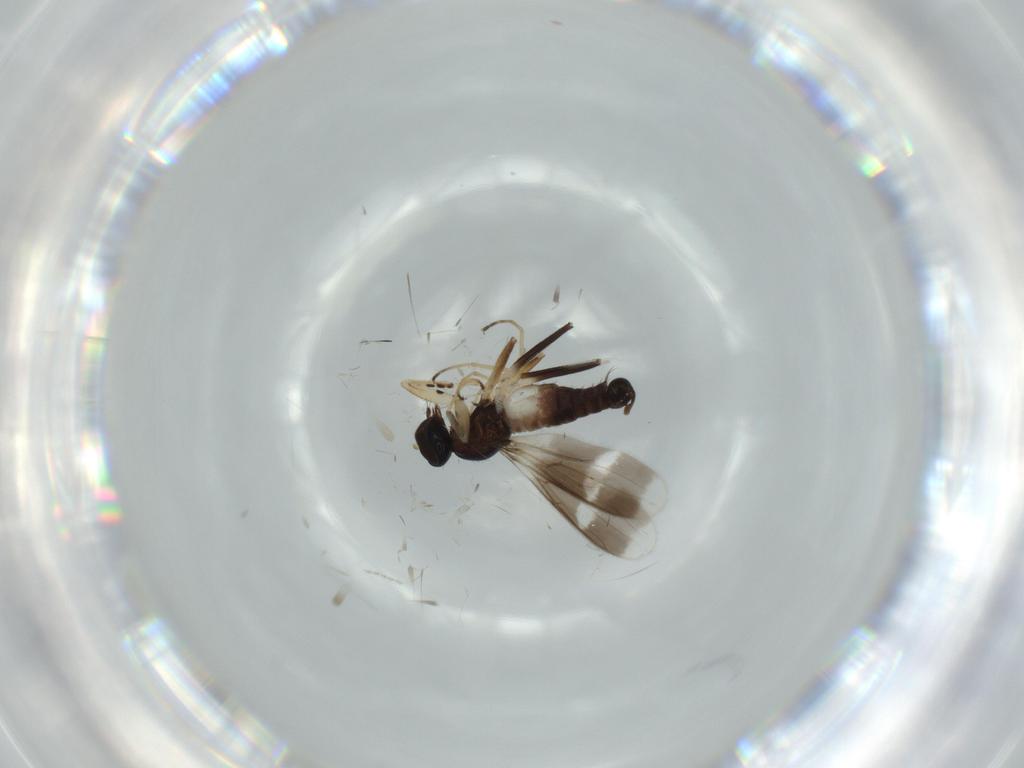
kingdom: Animalia
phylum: Arthropoda
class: Insecta
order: Diptera
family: Hybotidae
